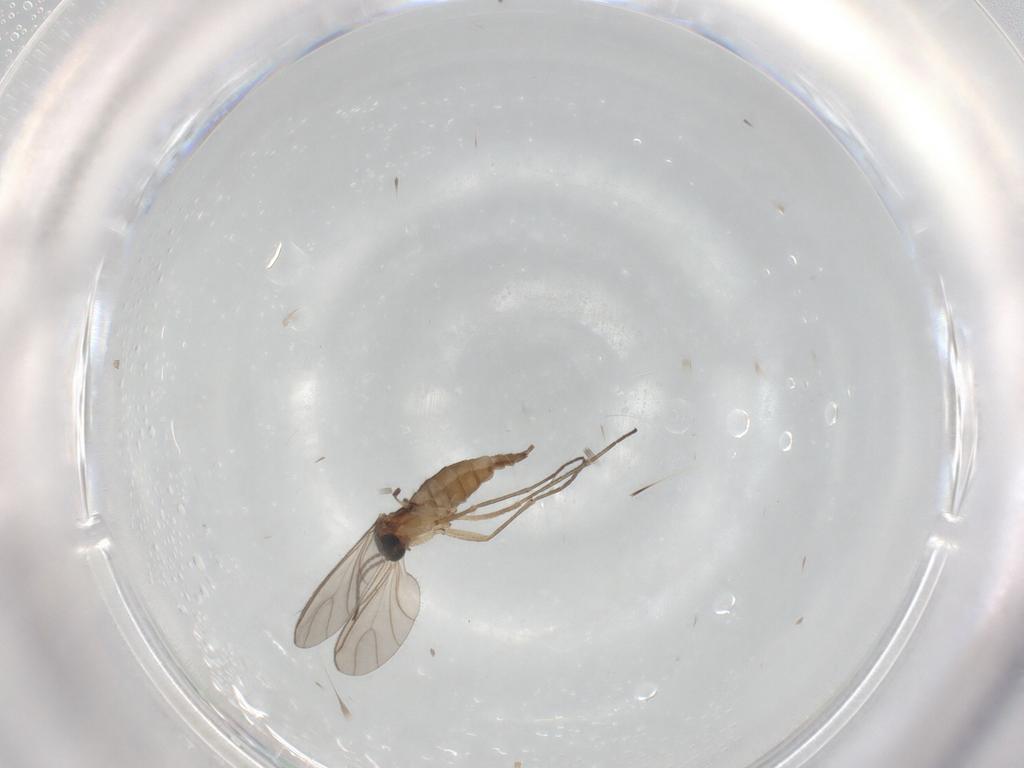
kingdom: Animalia
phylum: Arthropoda
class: Insecta
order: Diptera
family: Sciaridae
